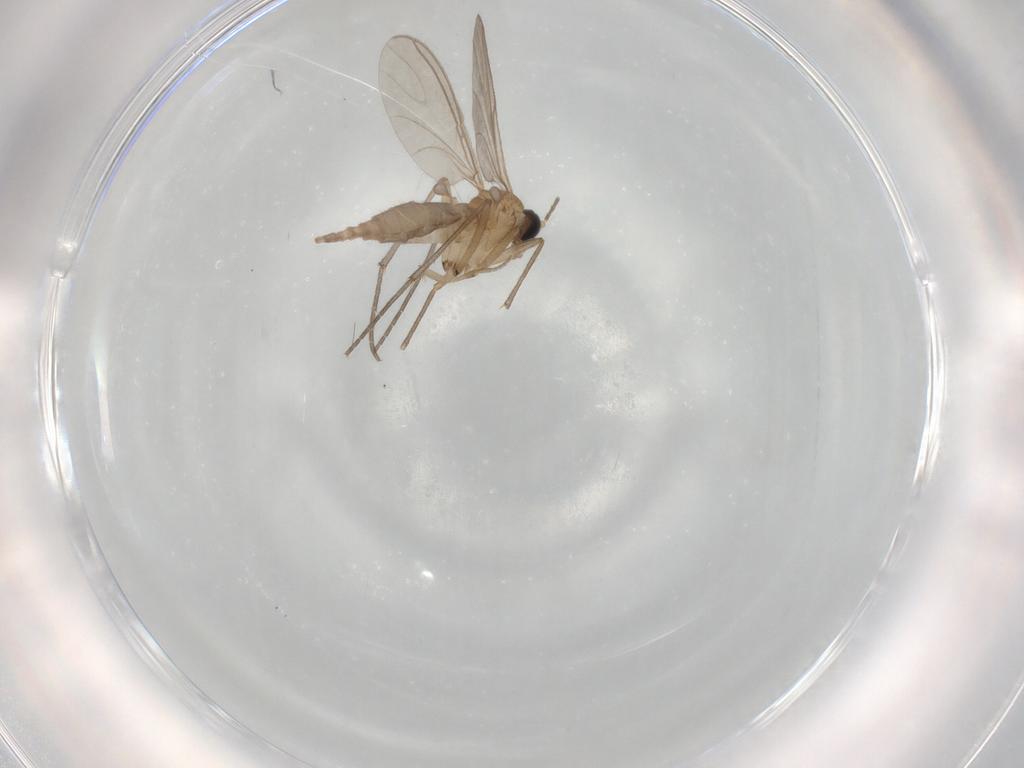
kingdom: Animalia
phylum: Arthropoda
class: Insecta
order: Diptera
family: Sciaridae
